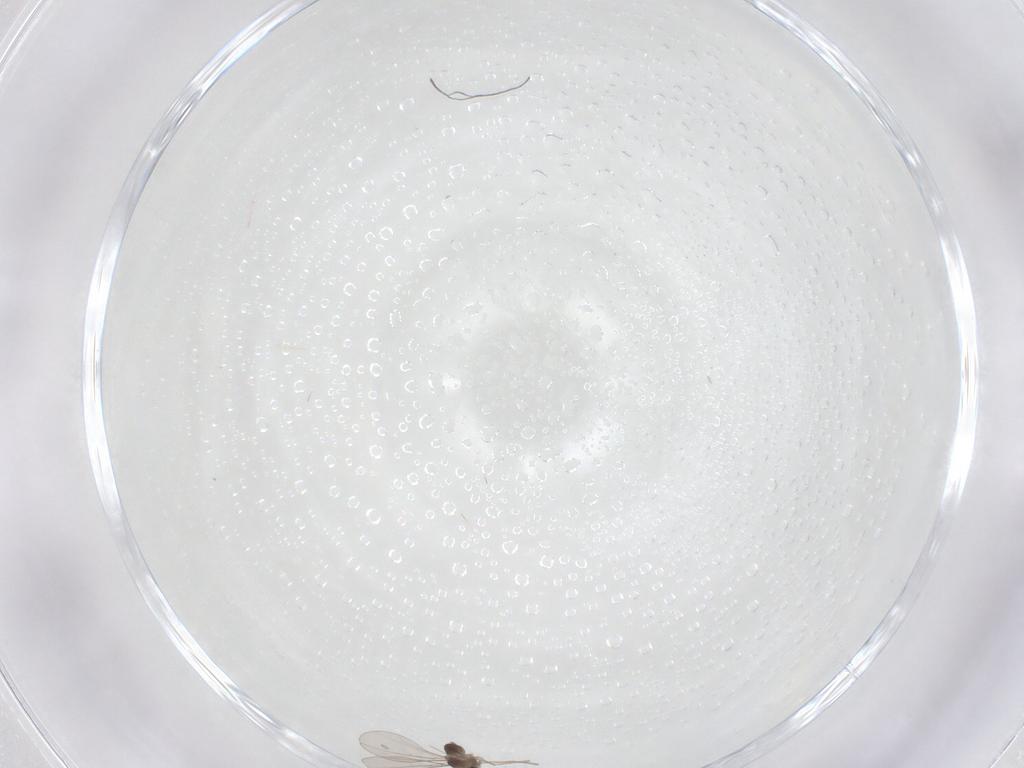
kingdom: Animalia
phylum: Arthropoda
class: Insecta
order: Diptera
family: Cecidomyiidae
